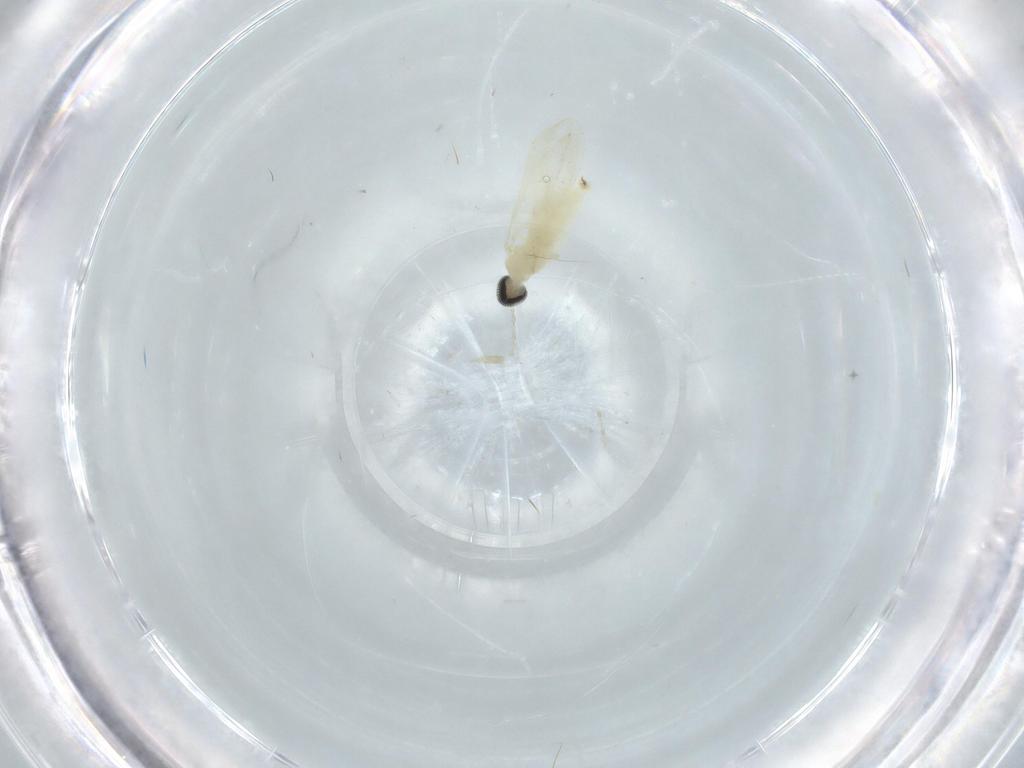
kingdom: Animalia
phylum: Arthropoda
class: Insecta
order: Diptera
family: Cecidomyiidae
